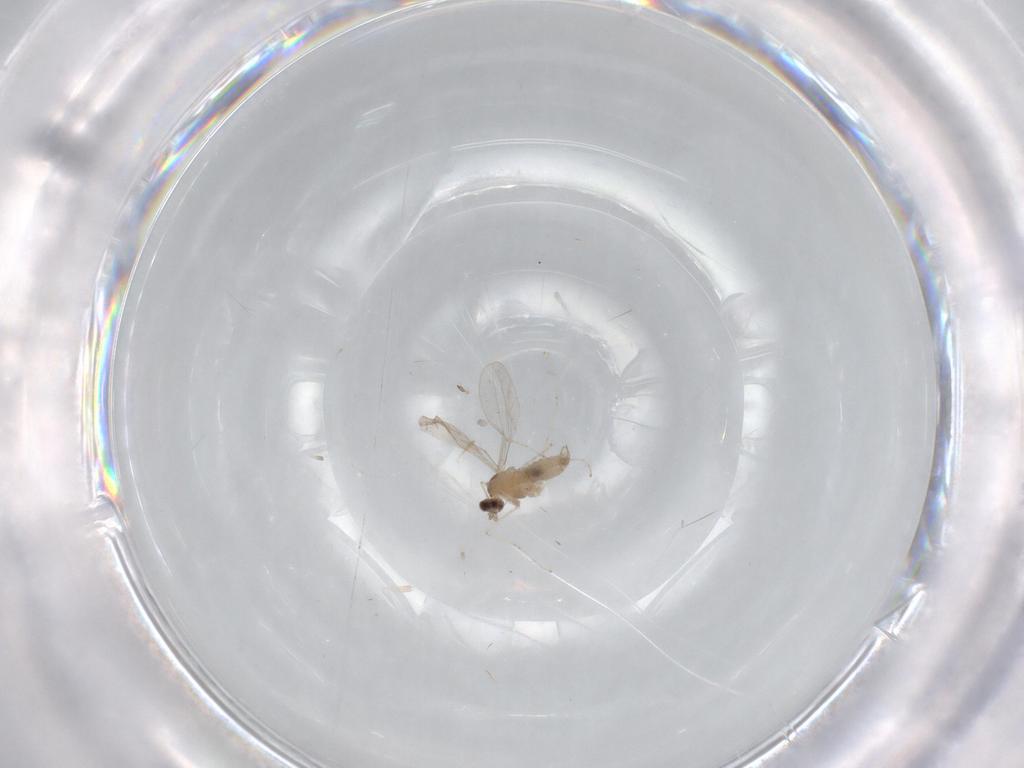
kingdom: Animalia
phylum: Arthropoda
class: Insecta
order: Diptera
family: Cecidomyiidae
